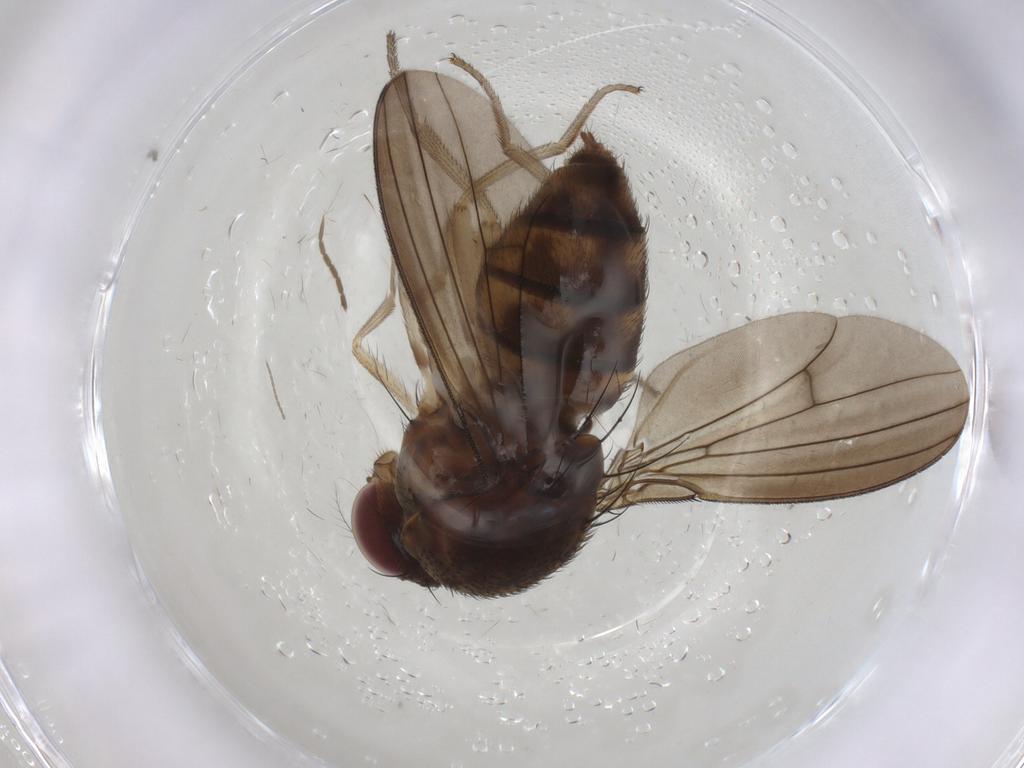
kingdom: Animalia
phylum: Arthropoda
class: Insecta
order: Diptera
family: Curtonotidae
